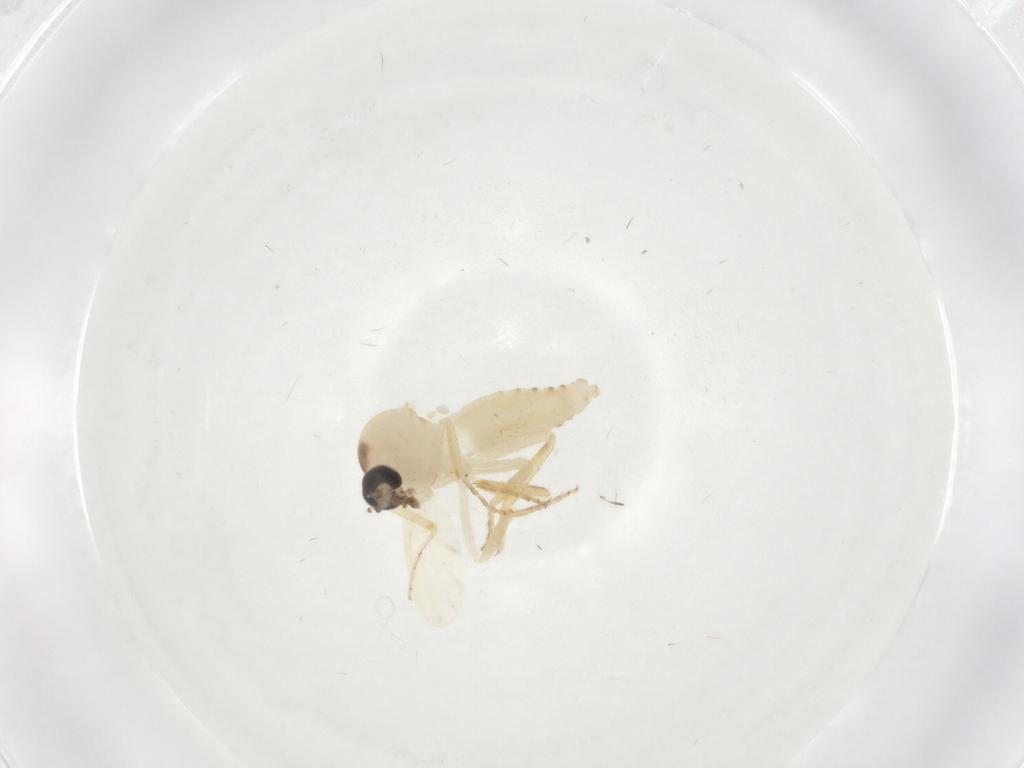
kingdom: Animalia
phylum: Arthropoda
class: Insecta
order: Diptera
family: Ceratopogonidae
